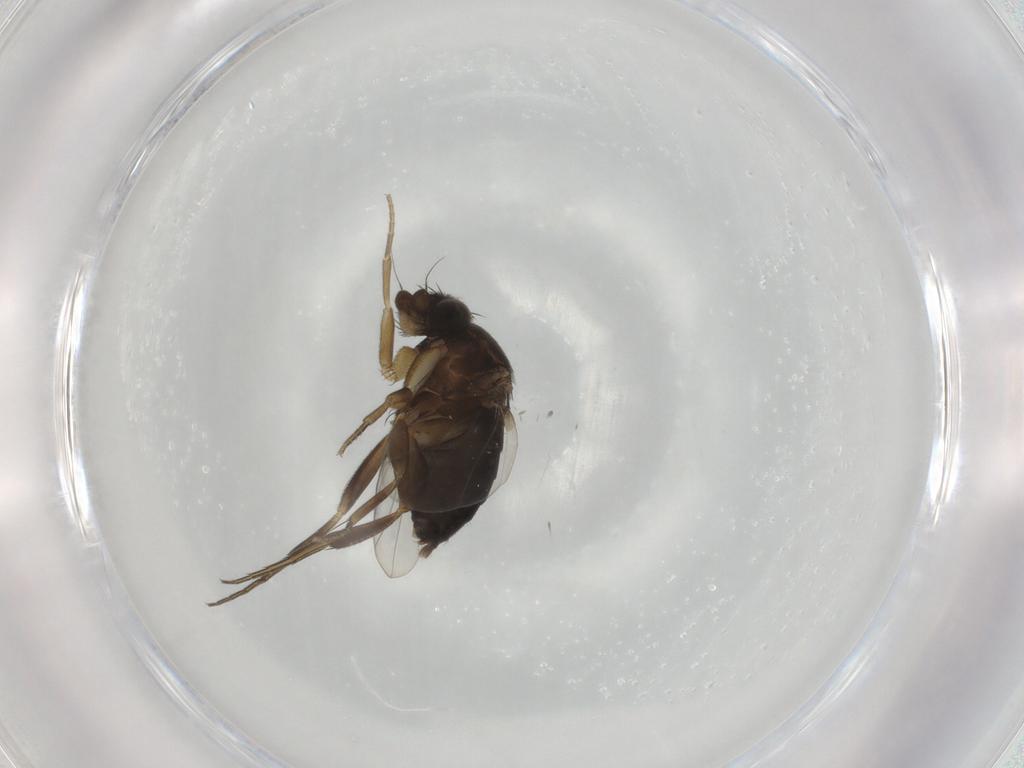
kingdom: Animalia
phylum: Arthropoda
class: Insecta
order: Diptera
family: Phoridae
